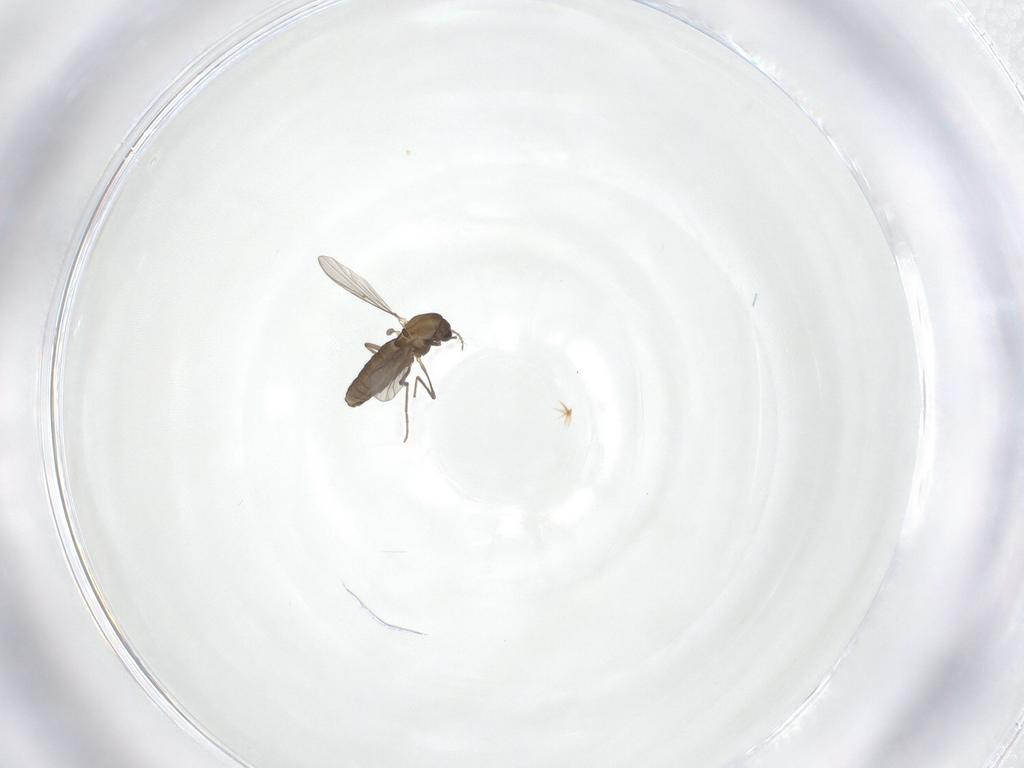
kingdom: Animalia
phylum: Arthropoda
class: Insecta
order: Diptera
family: Chironomidae
